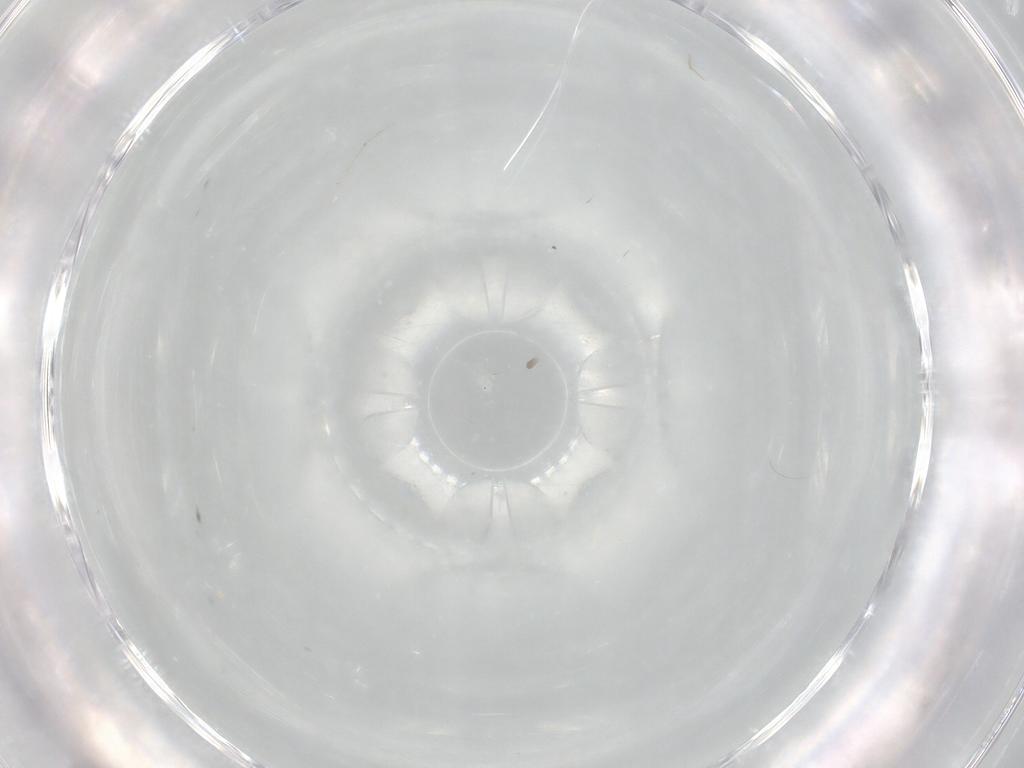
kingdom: Animalia
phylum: Arthropoda
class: Insecta
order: Diptera
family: Cecidomyiidae
